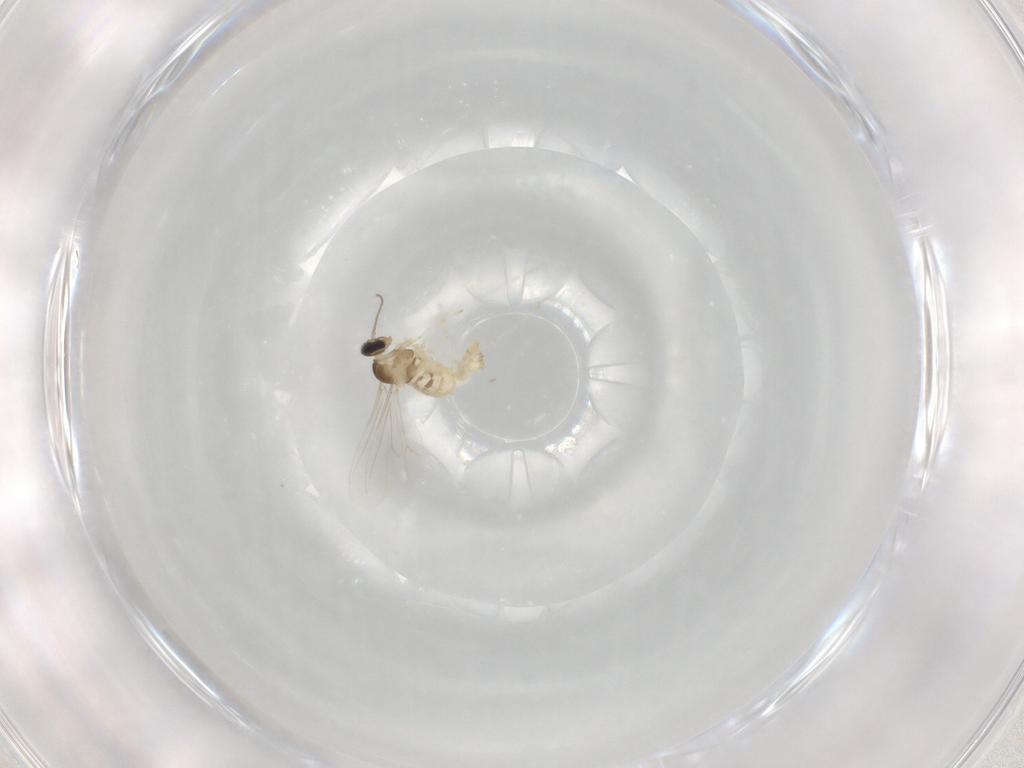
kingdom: Animalia
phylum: Arthropoda
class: Insecta
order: Diptera
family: Cecidomyiidae
